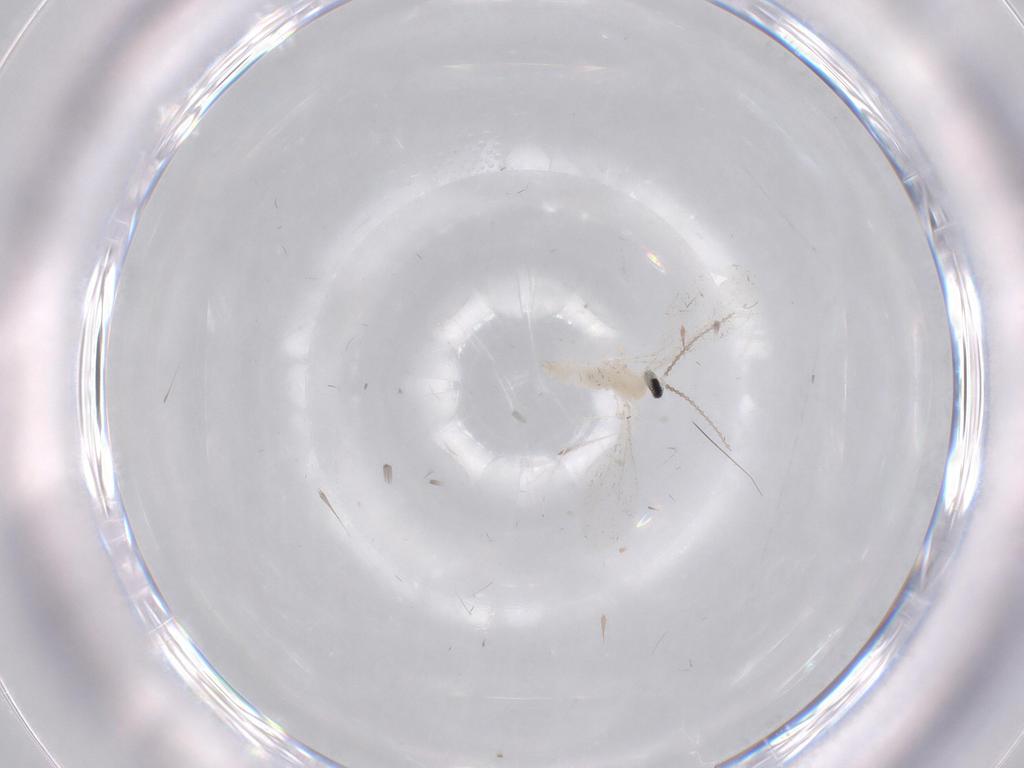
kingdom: Animalia
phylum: Arthropoda
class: Insecta
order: Diptera
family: Cecidomyiidae
